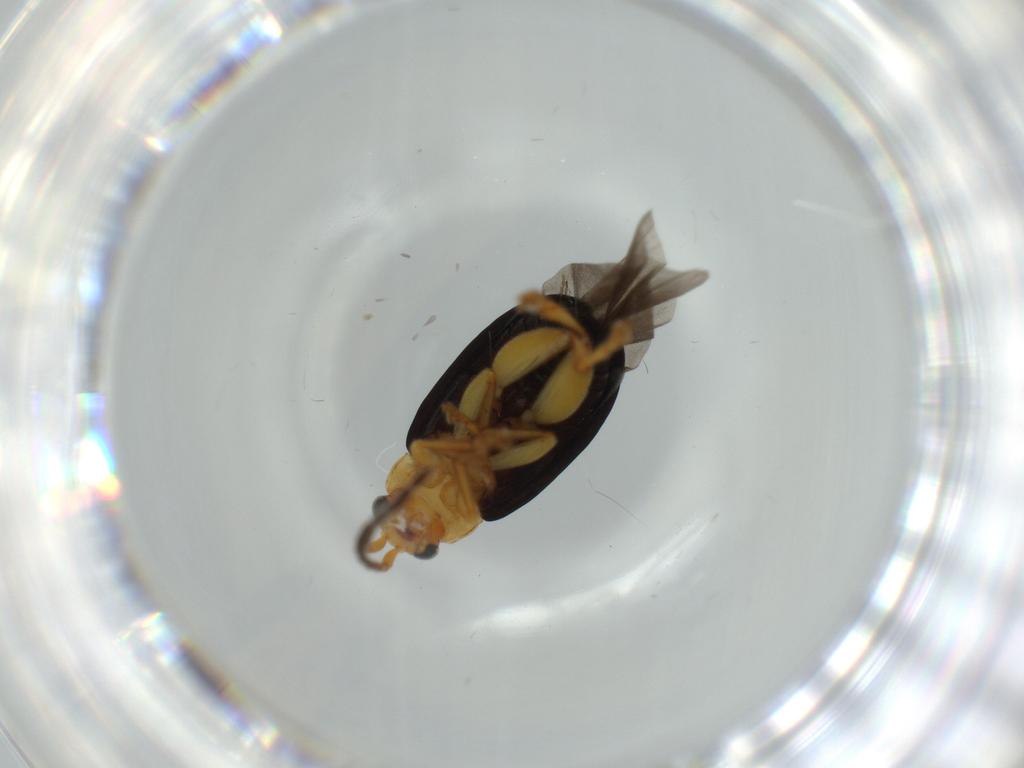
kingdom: Animalia
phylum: Arthropoda
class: Insecta
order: Coleoptera
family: Chrysomelidae
